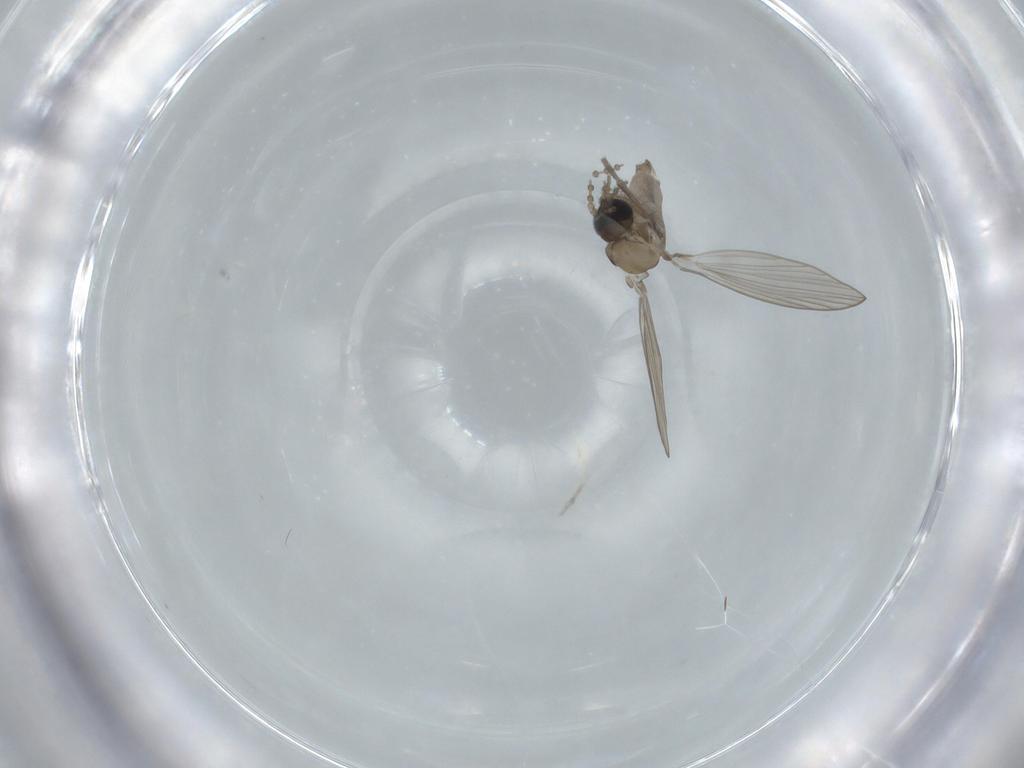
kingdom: Animalia
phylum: Arthropoda
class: Insecta
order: Diptera
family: Psychodidae
